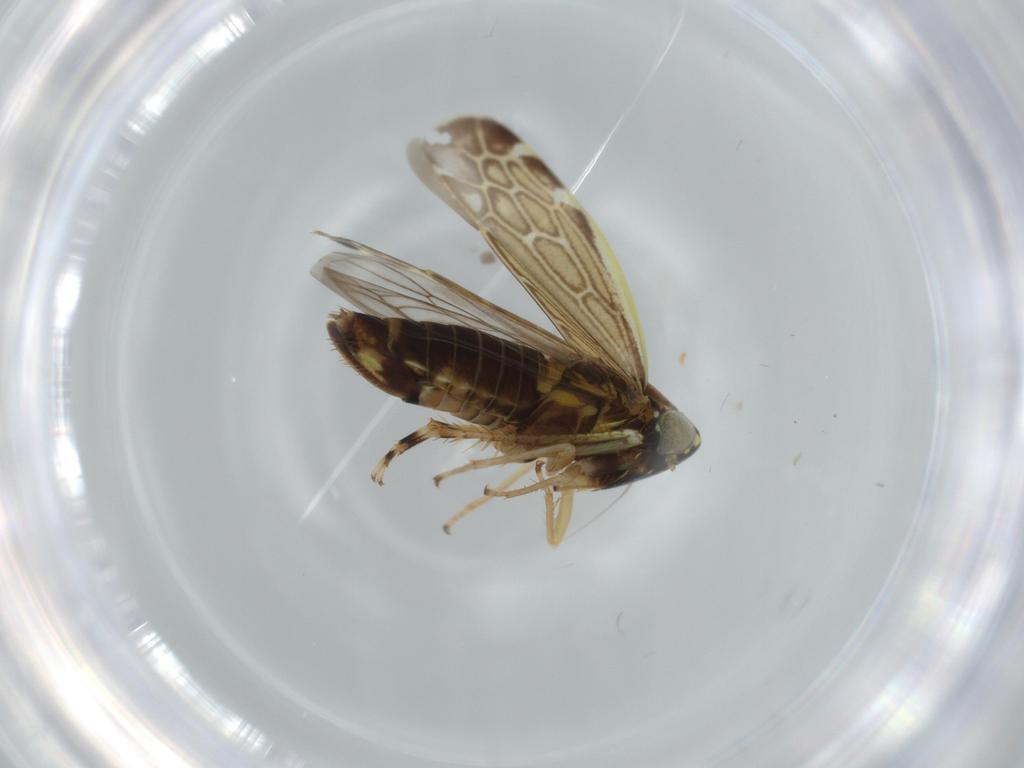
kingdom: Animalia
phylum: Arthropoda
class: Insecta
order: Hemiptera
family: Cicadellidae
